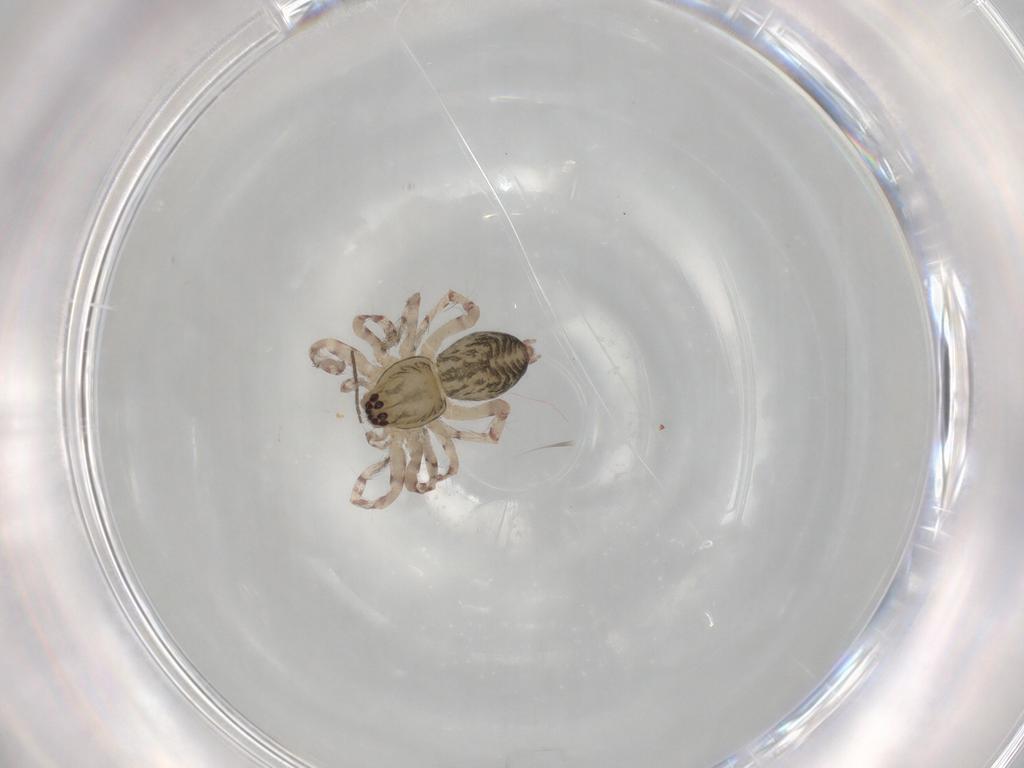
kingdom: Animalia
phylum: Arthropoda
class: Arachnida
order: Araneae
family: Anyphaenidae
